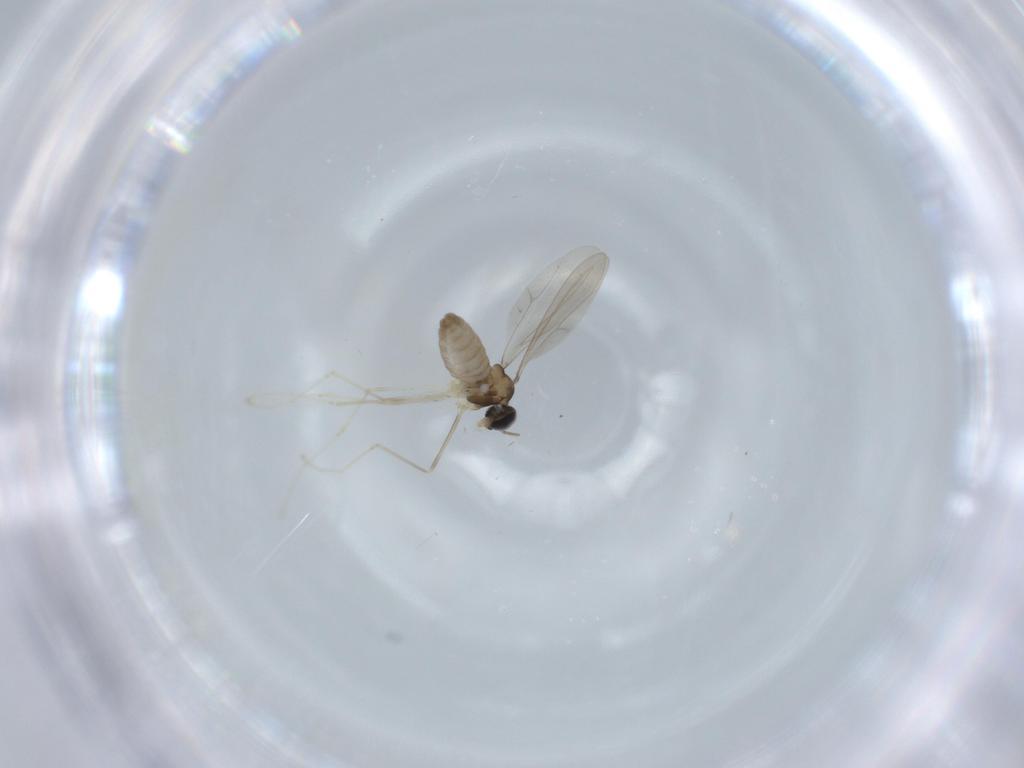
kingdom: Animalia
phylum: Arthropoda
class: Insecta
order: Diptera
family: Cecidomyiidae
